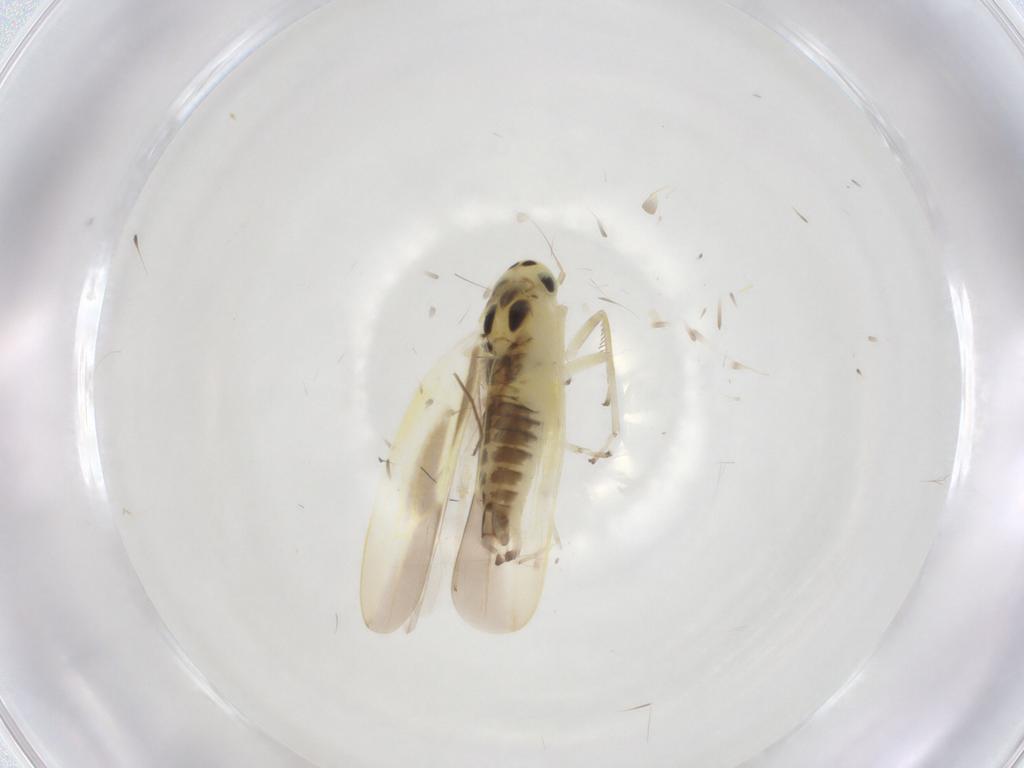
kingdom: Animalia
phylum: Arthropoda
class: Insecta
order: Hemiptera
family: Cicadellidae
